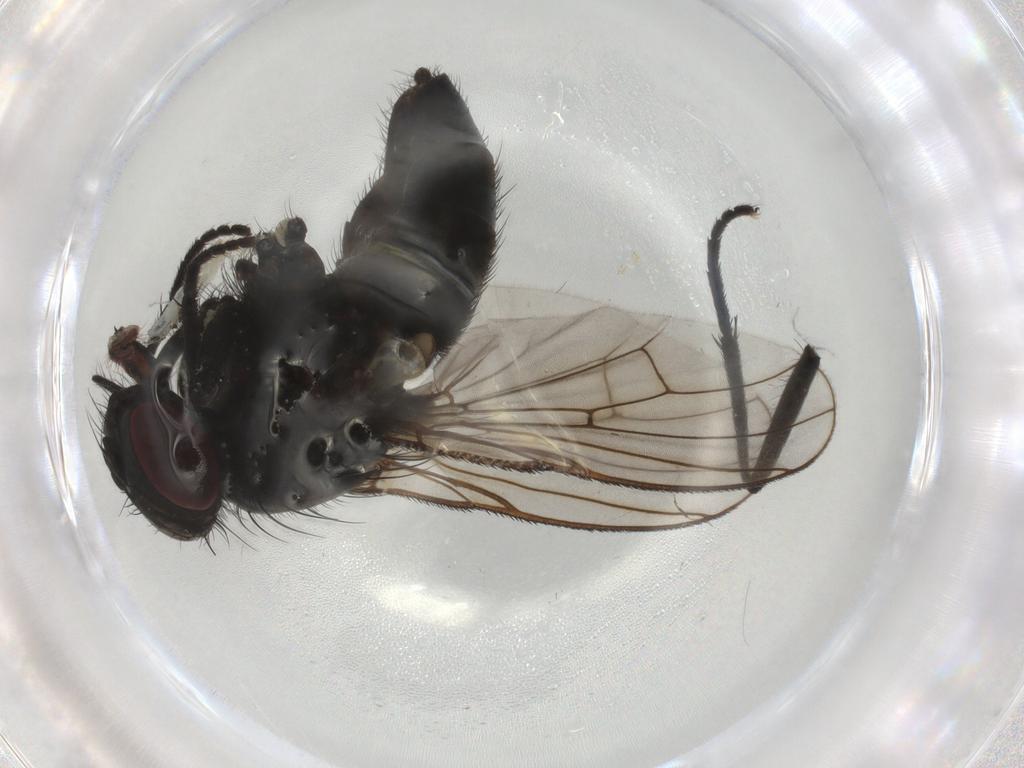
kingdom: Animalia
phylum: Arthropoda
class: Insecta
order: Diptera
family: Muscidae
